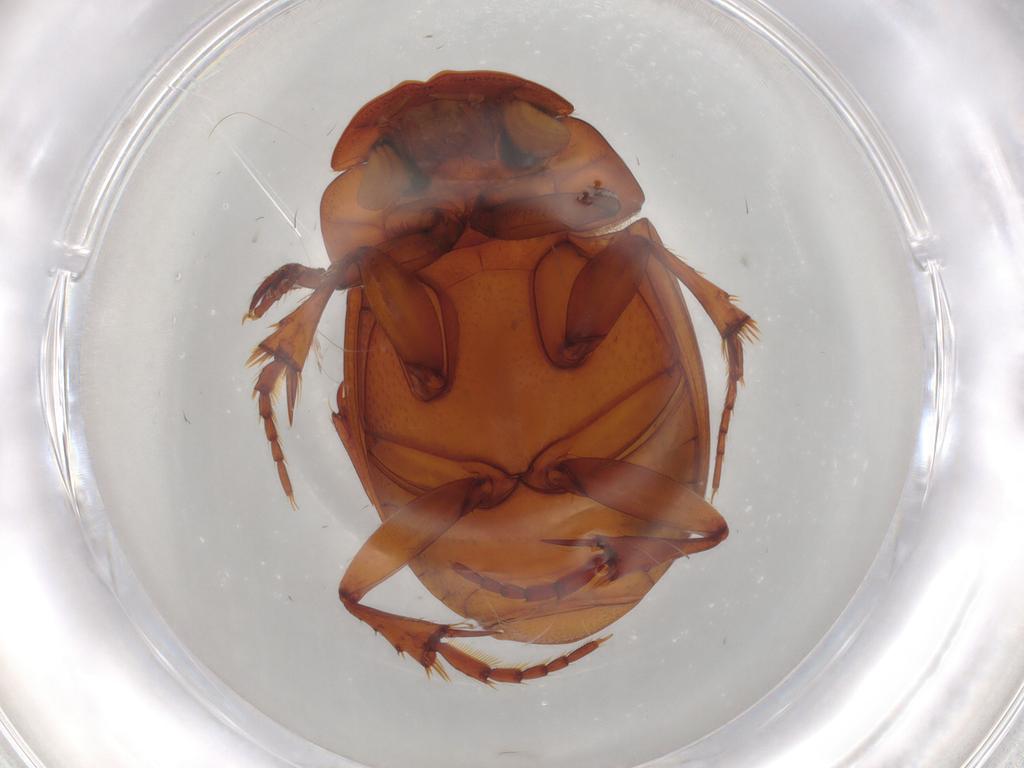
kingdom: Animalia
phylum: Arthropoda
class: Insecta
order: Coleoptera
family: Scarabaeidae
